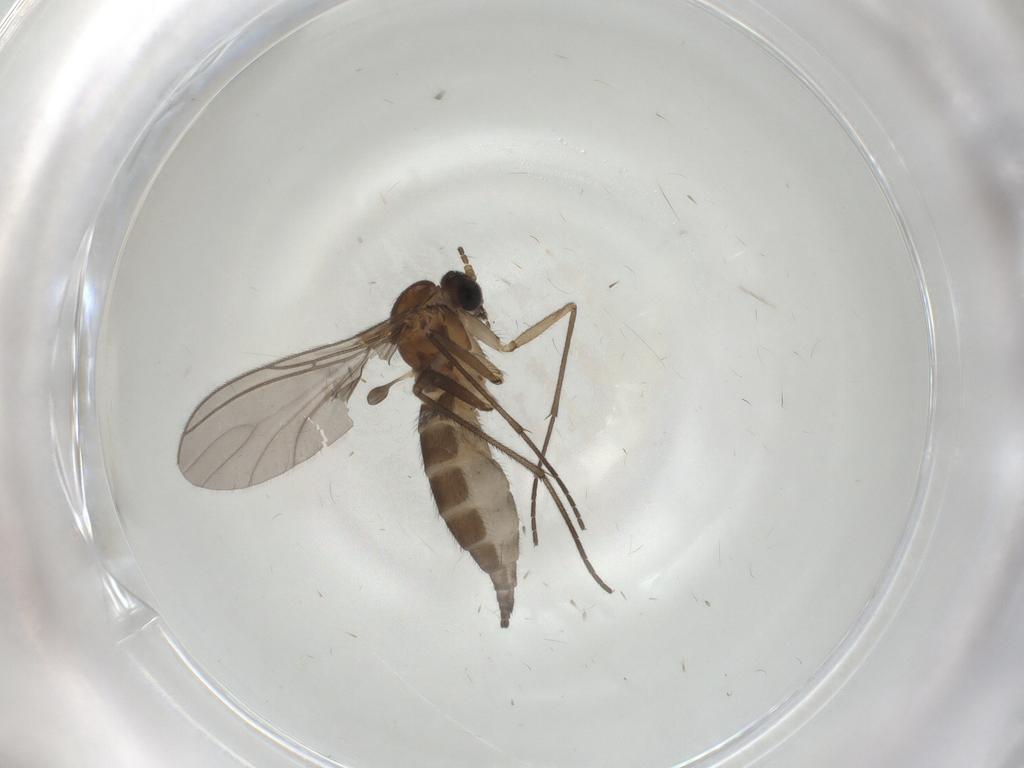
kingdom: Animalia
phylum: Arthropoda
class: Insecta
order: Diptera
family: Sciaridae
